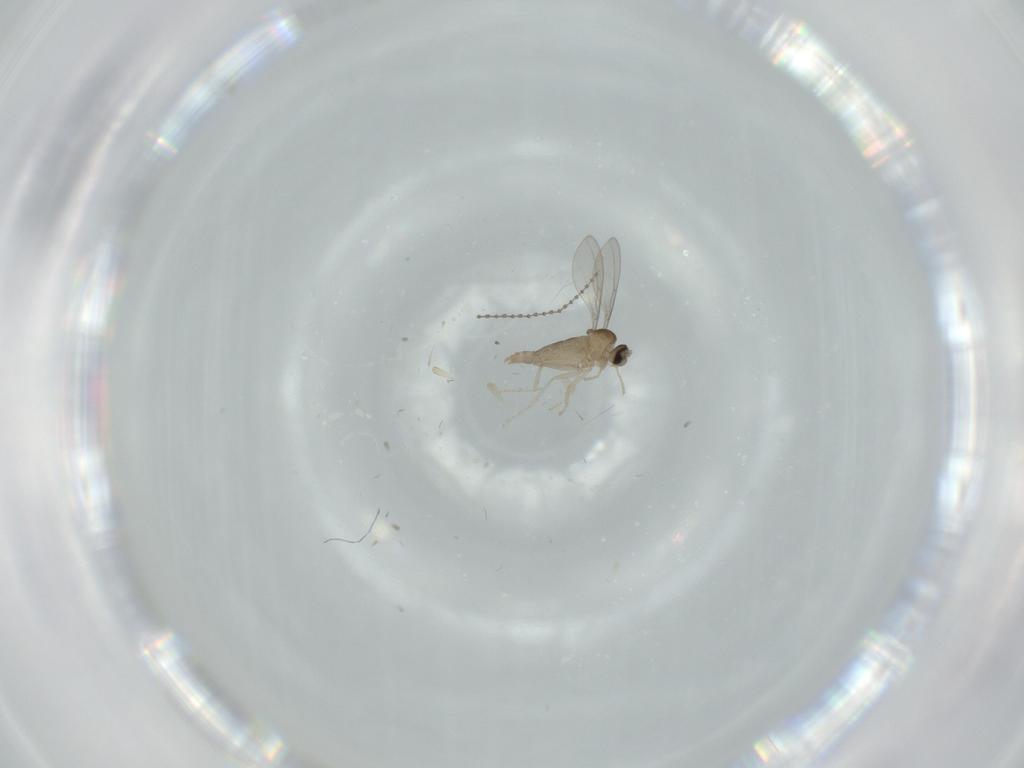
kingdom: Animalia
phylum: Arthropoda
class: Insecta
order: Diptera
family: Cecidomyiidae
